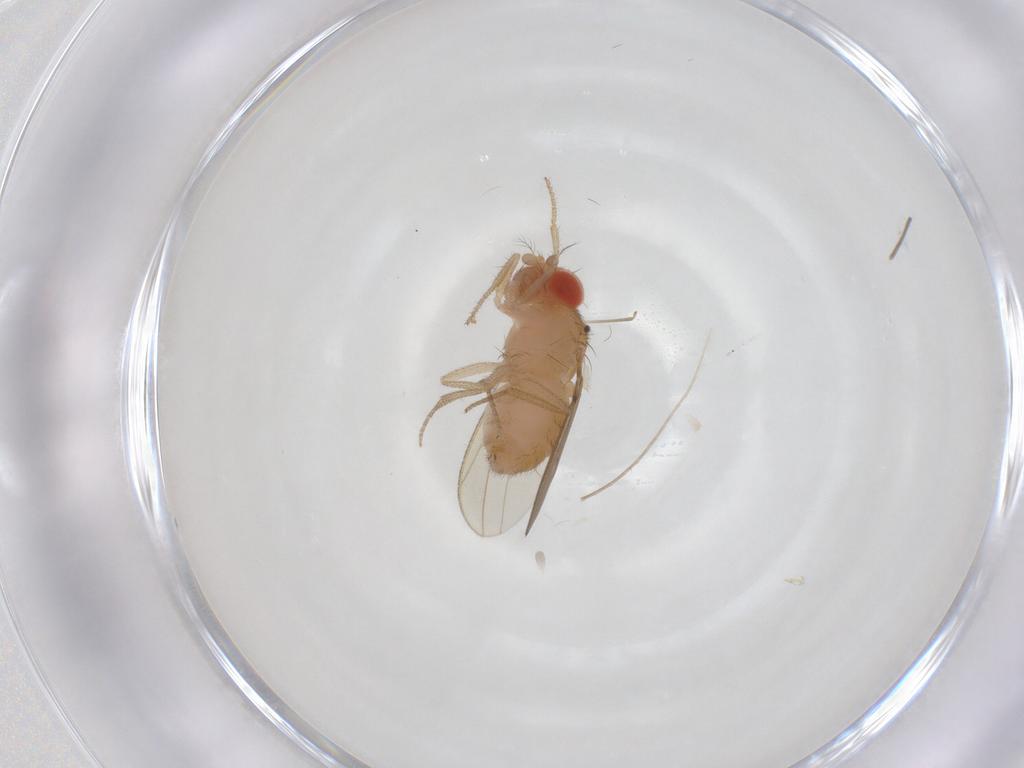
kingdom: Animalia
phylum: Arthropoda
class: Insecta
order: Diptera
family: Drosophilidae
